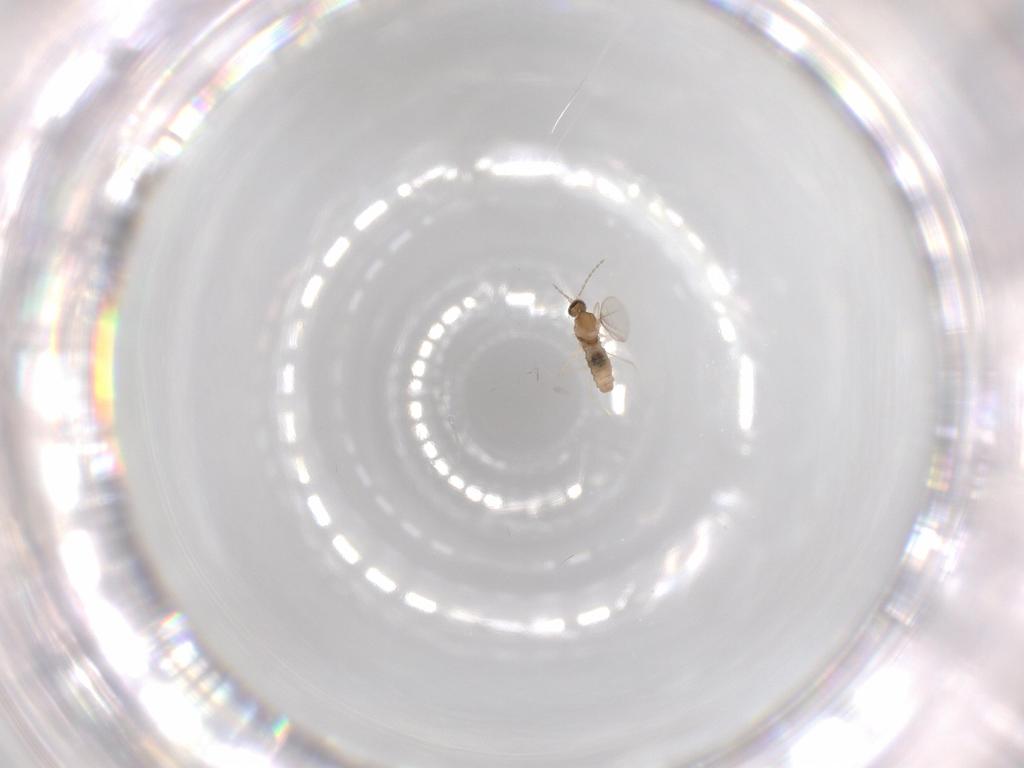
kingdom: Animalia
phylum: Arthropoda
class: Insecta
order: Diptera
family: Cecidomyiidae
